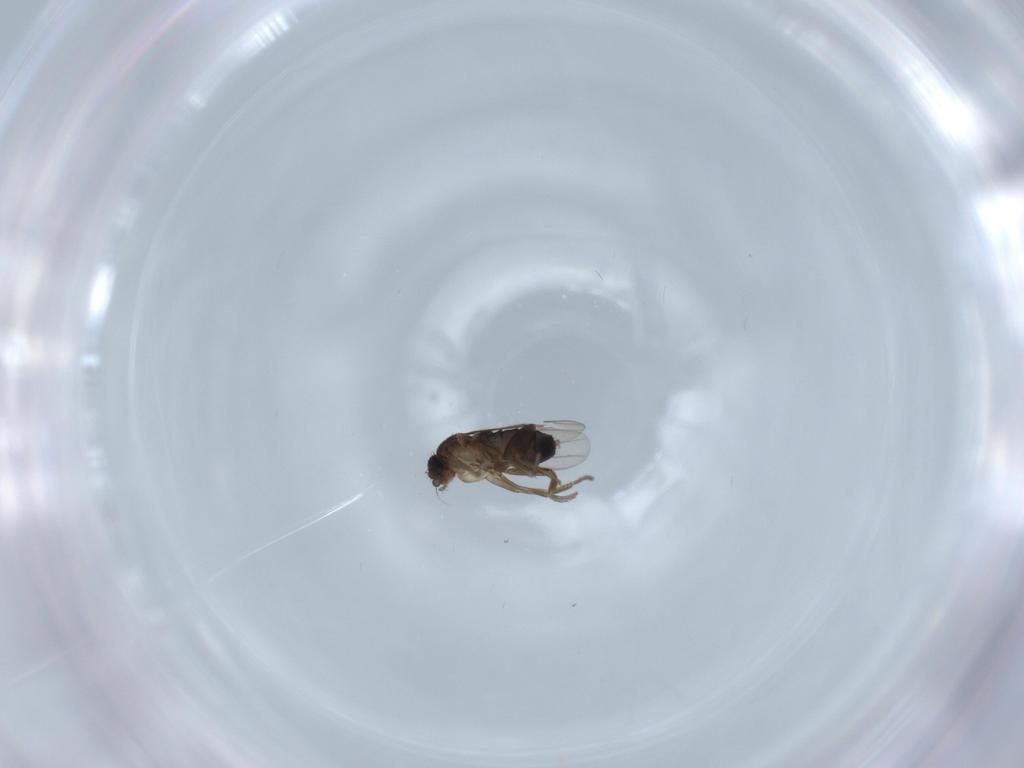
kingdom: Animalia
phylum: Arthropoda
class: Insecta
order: Diptera
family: Phoridae
